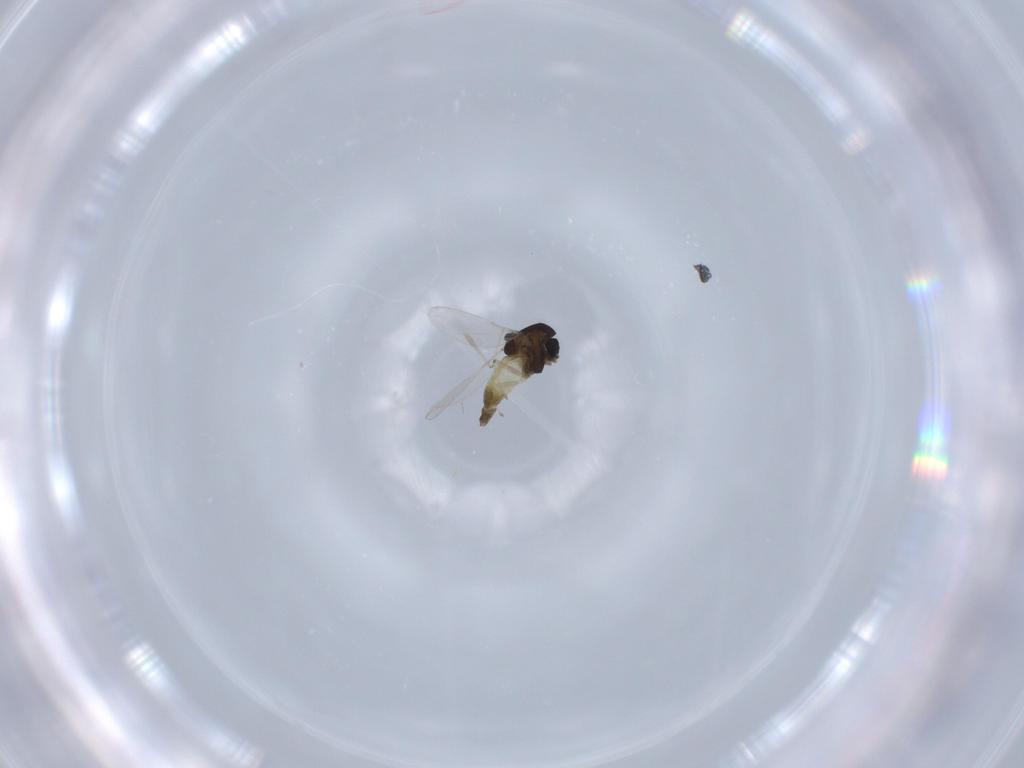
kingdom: Animalia
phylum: Arthropoda
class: Insecta
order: Diptera
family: Chironomidae
